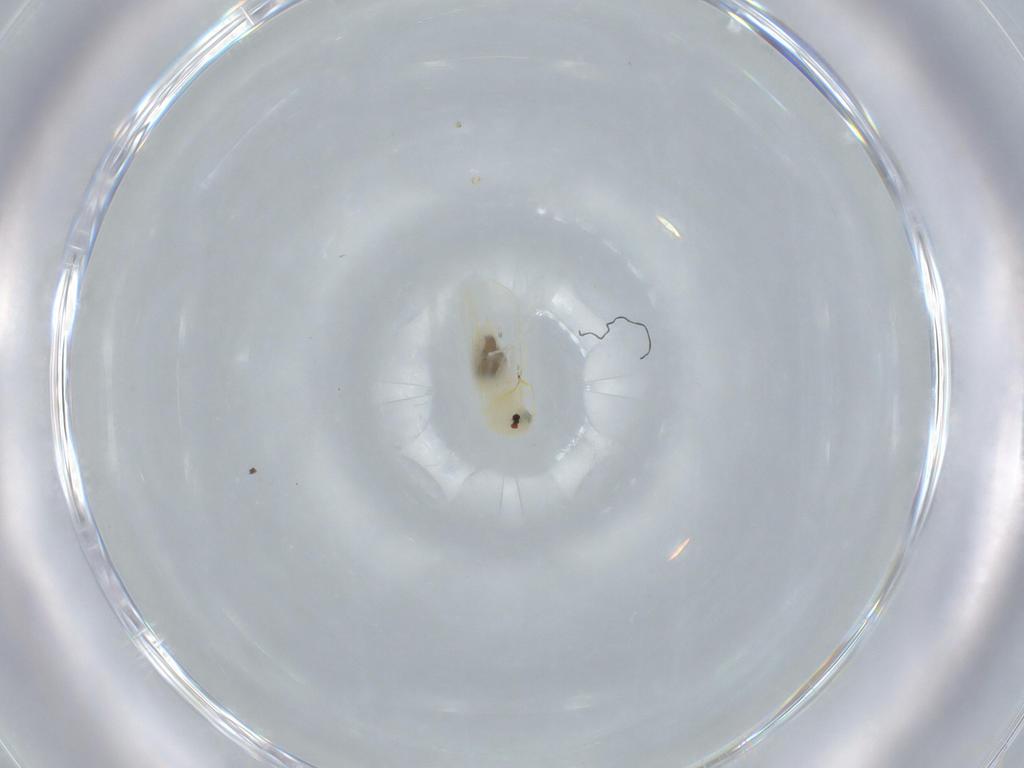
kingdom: Animalia
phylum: Arthropoda
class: Insecta
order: Hemiptera
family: Aleyrodidae
